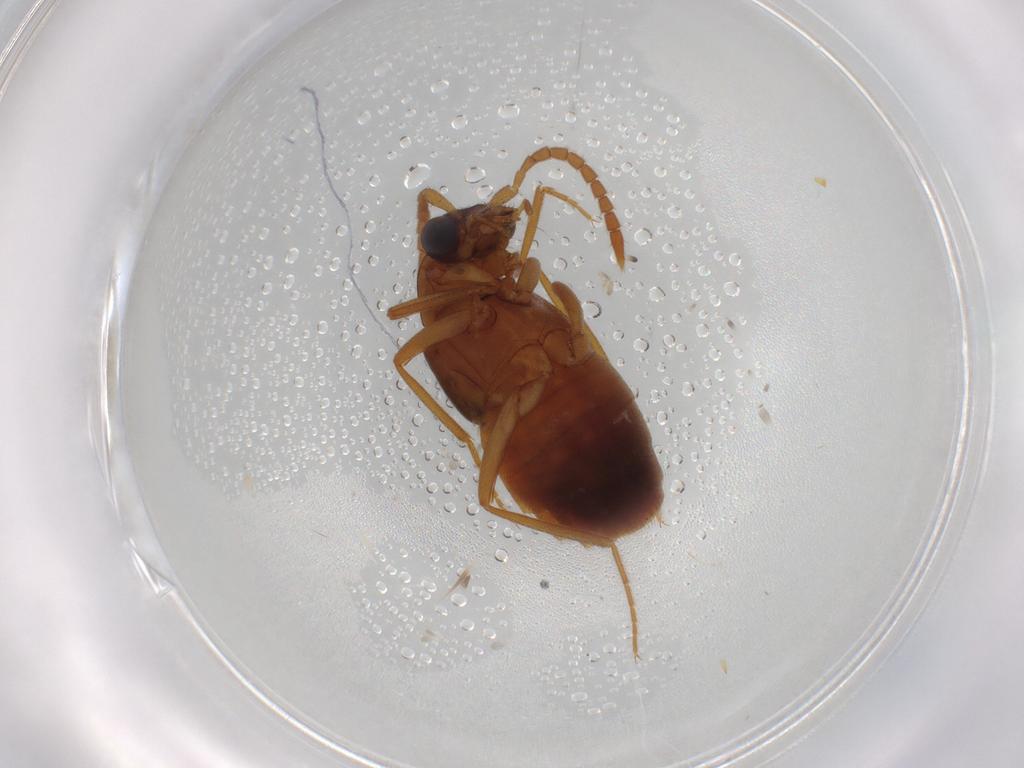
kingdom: Animalia
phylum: Arthropoda
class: Insecta
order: Coleoptera
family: Staphylinidae
